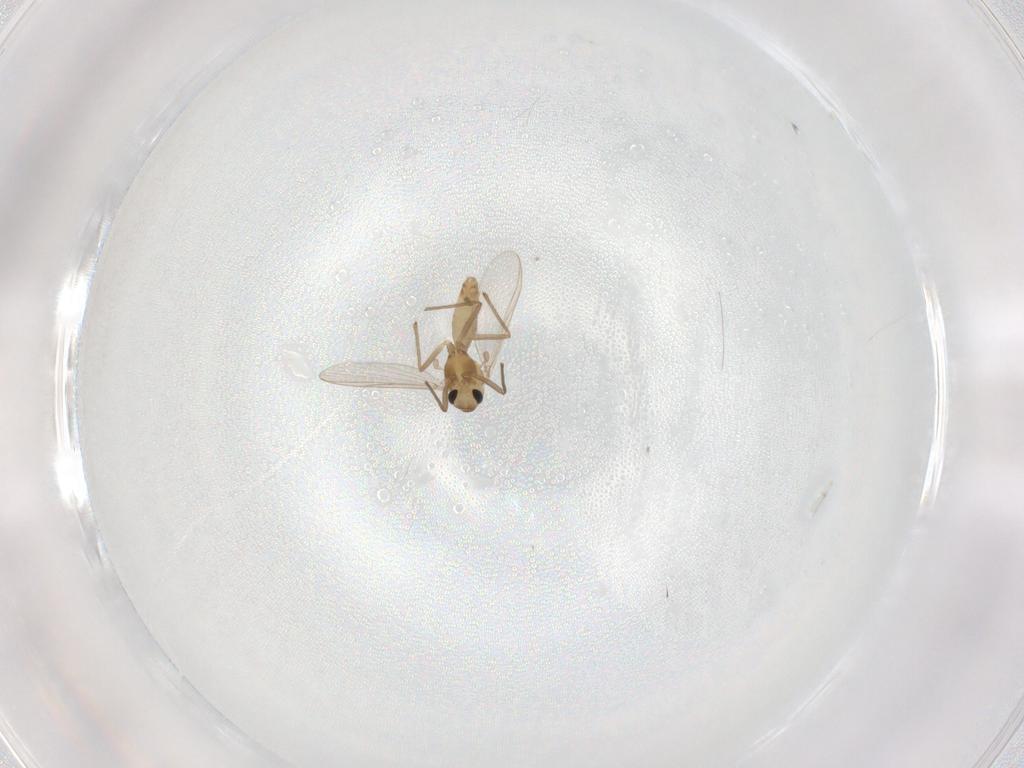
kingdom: Animalia
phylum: Arthropoda
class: Insecta
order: Diptera
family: Chironomidae
